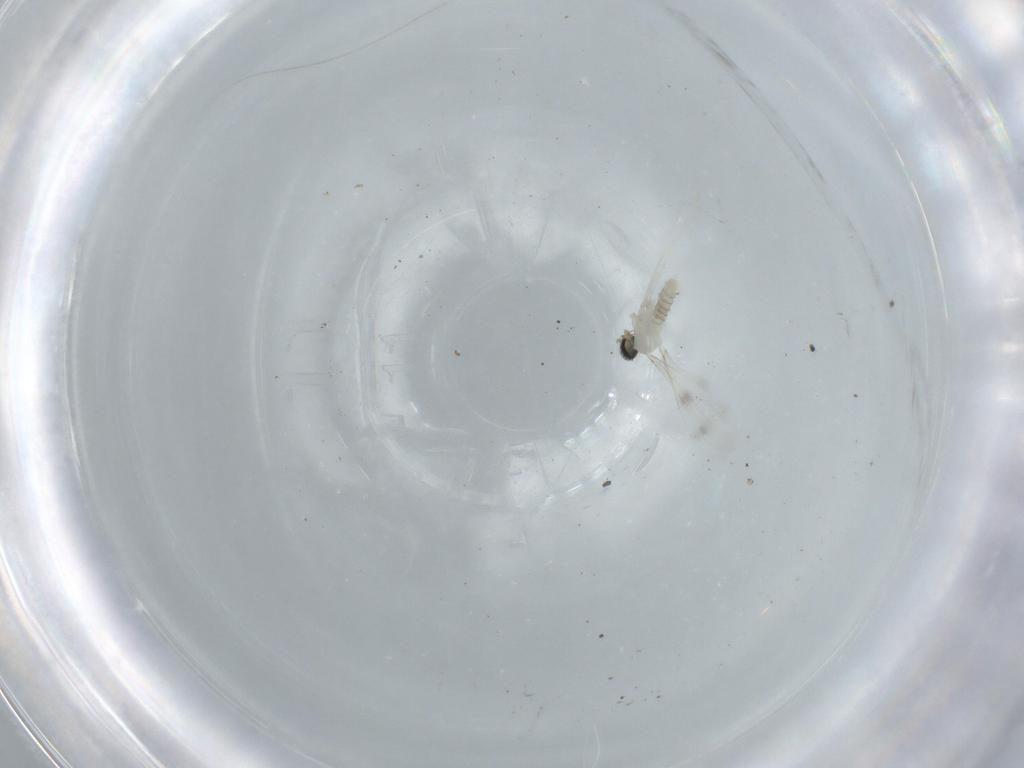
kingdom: Animalia
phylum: Arthropoda
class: Insecta
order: Diptera
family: Cecidomyiidae
